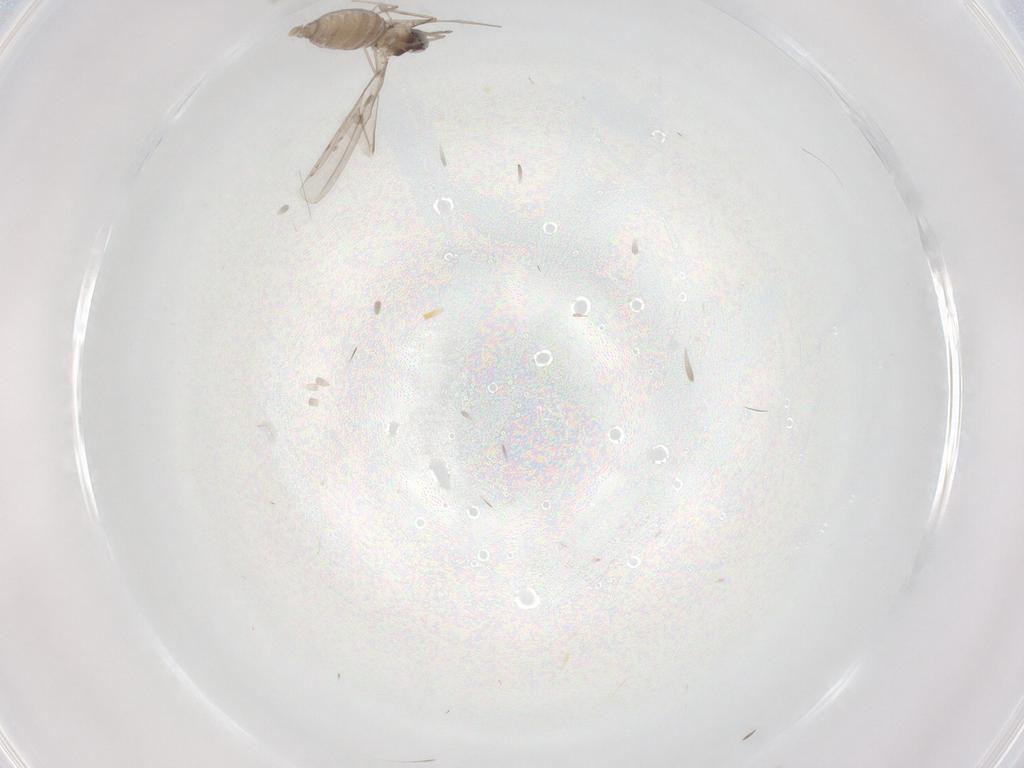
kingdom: Animalia
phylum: Arthropoda
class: Insecta
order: Diptera
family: Cecidomyiidae
